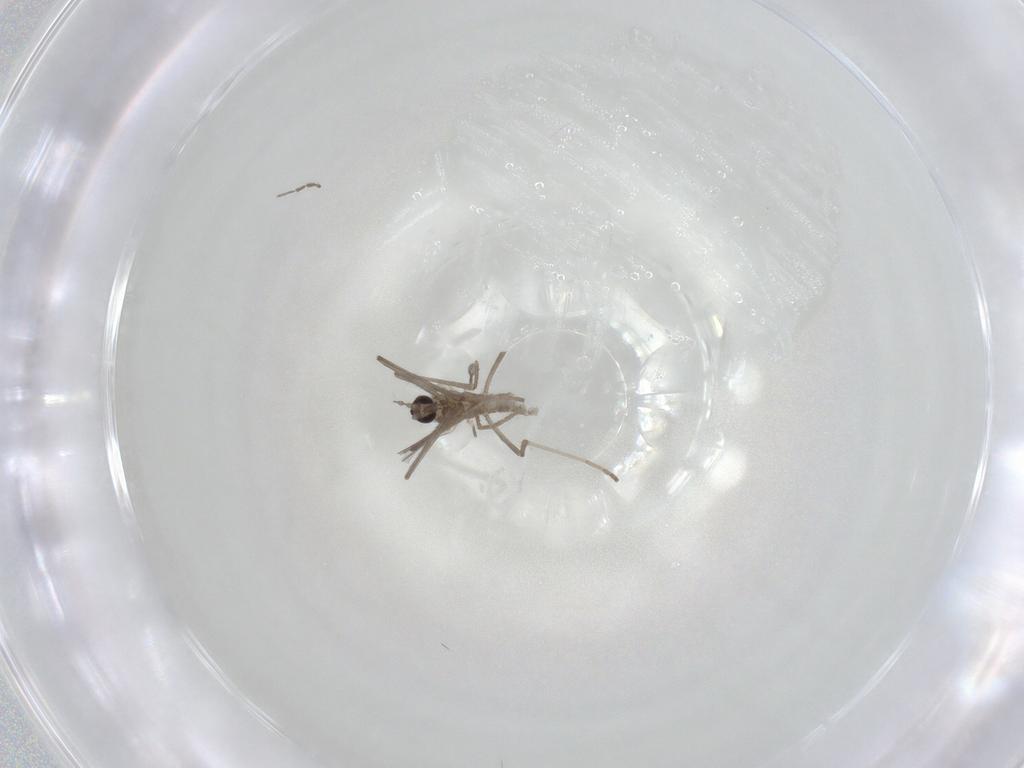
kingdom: Animalia
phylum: Arthropoda
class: Insecta
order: Diptera
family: Cecidomyiidae
